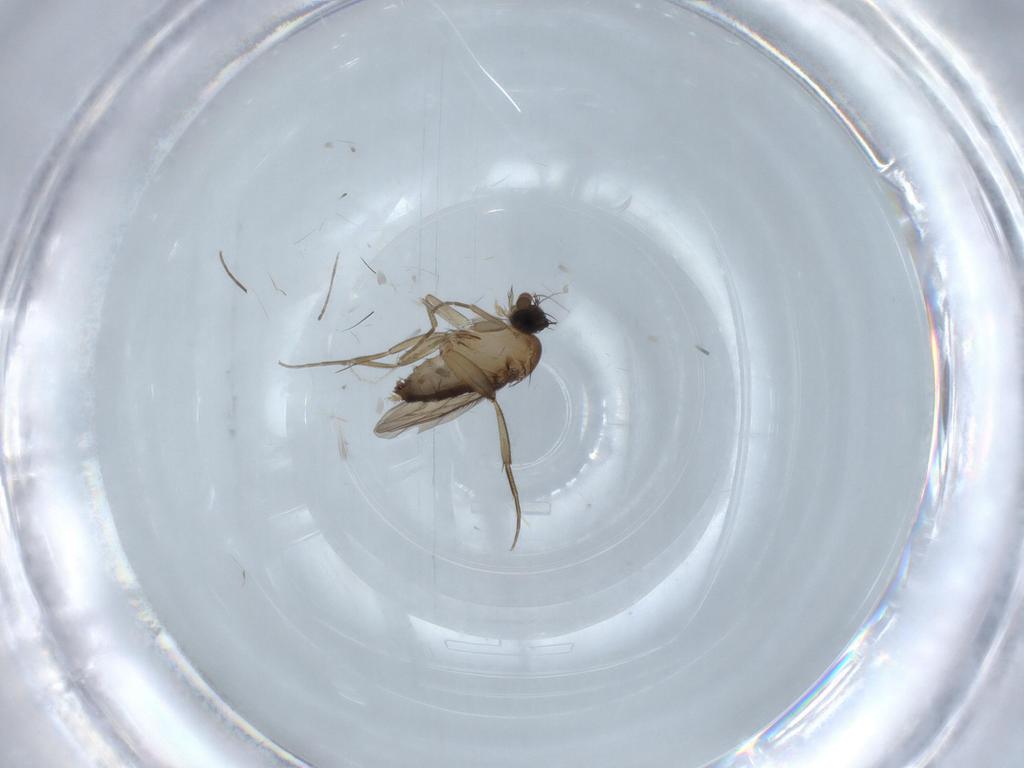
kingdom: Animalia
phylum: Arthropoda
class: Insecta
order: Diptera
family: Phoridae
